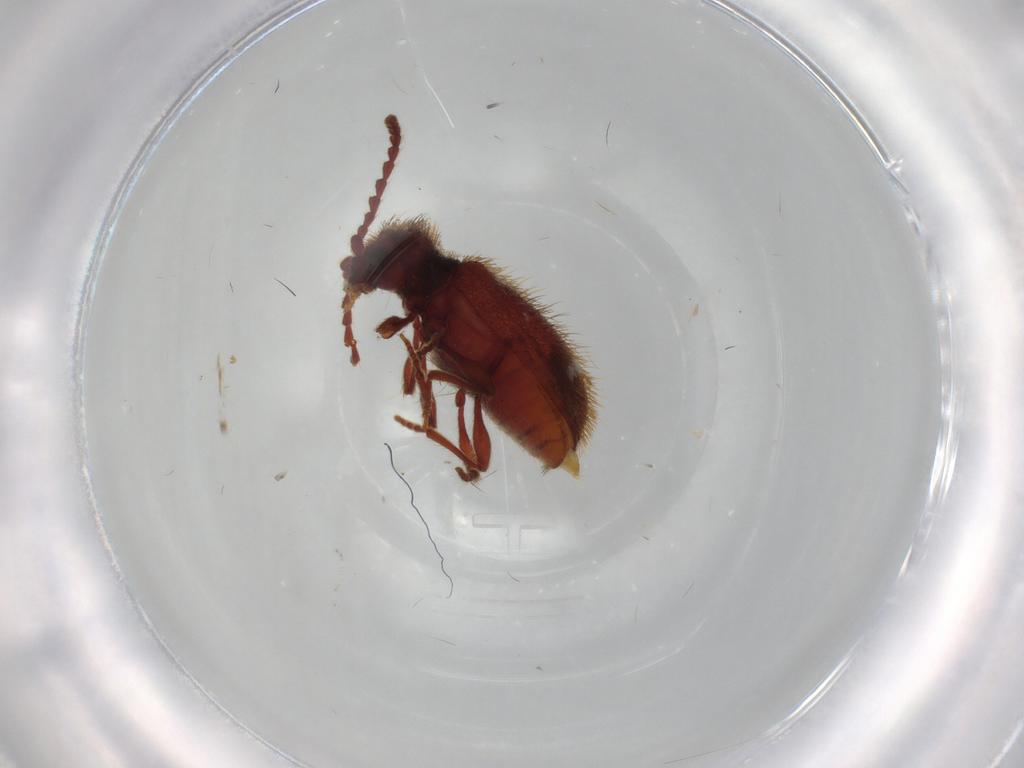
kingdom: Animalia
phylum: Arthropoda
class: Insecta
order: Coleoptera
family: Ptinidae
